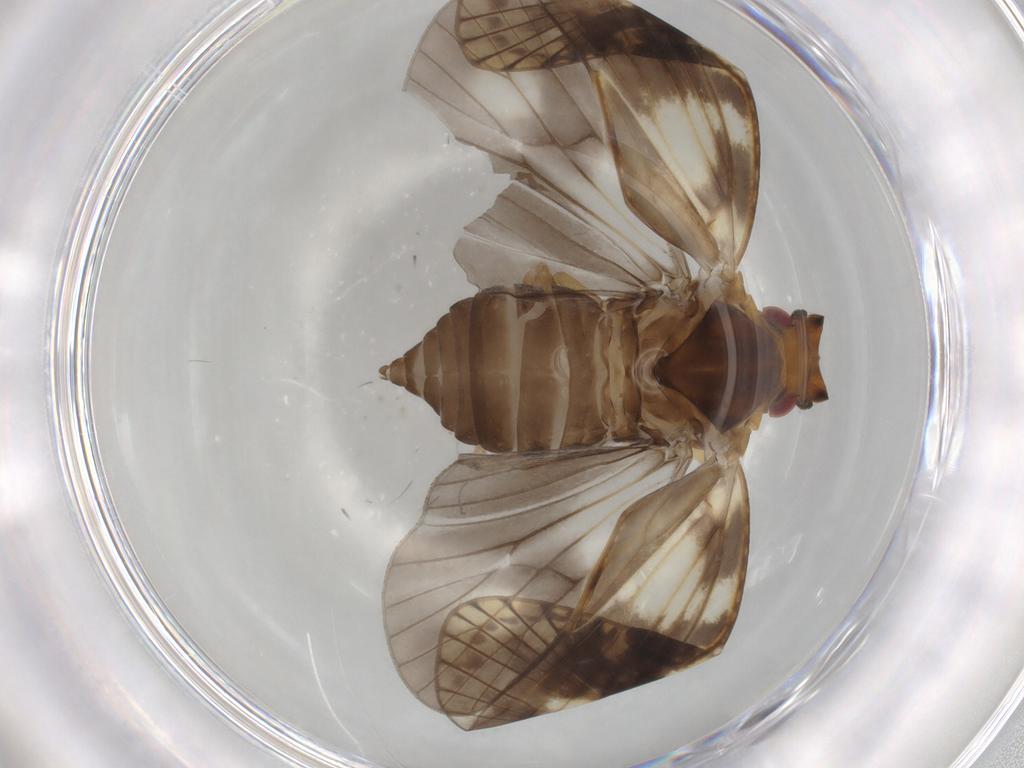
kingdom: Animalia
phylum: Arthropoda
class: Insecta
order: Hemiptera
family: Cixiidae
